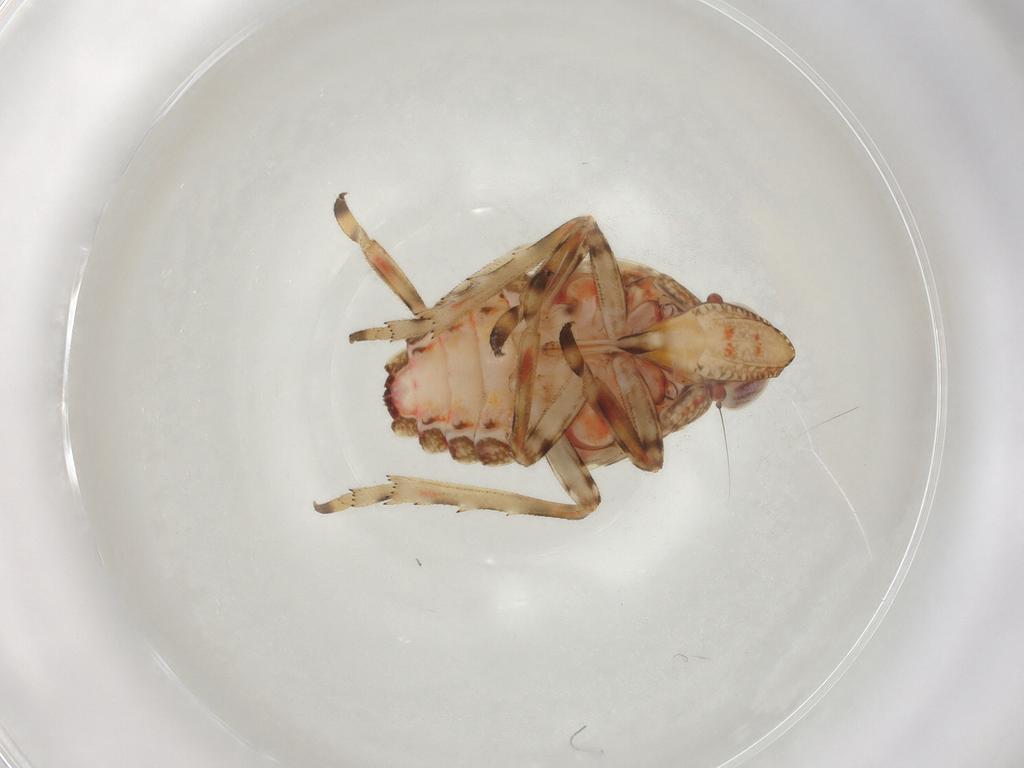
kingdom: Animalia
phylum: Arthropoda
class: Insecta
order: Hemiptera
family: Tropiduchidae
